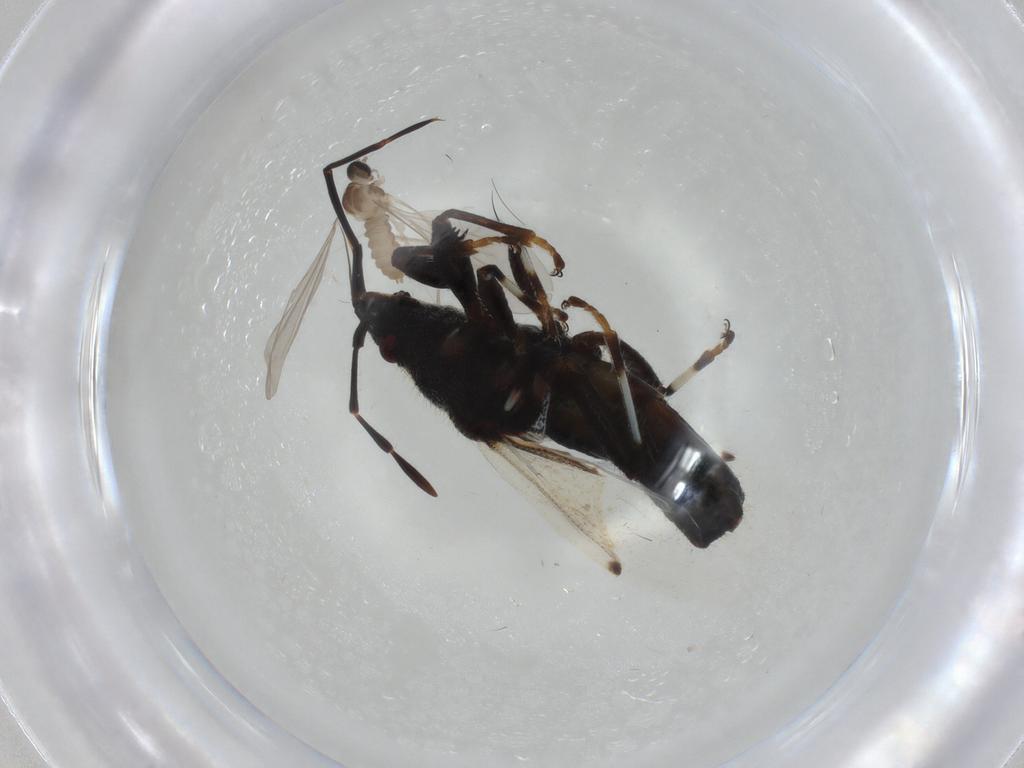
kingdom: Animalia
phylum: Arthropoda
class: Insecta
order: Diptera
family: Cecidomyiidae
